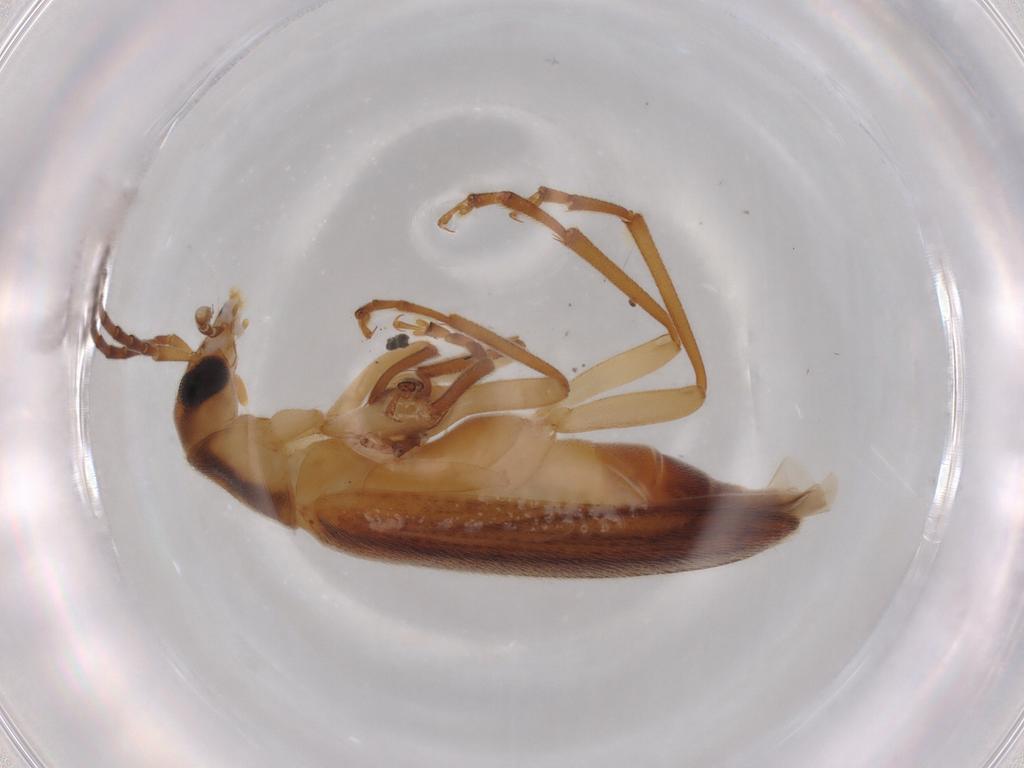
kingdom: Animalia
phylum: Arthropoda
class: Insecta
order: Coleoptera
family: Oedemeridae
